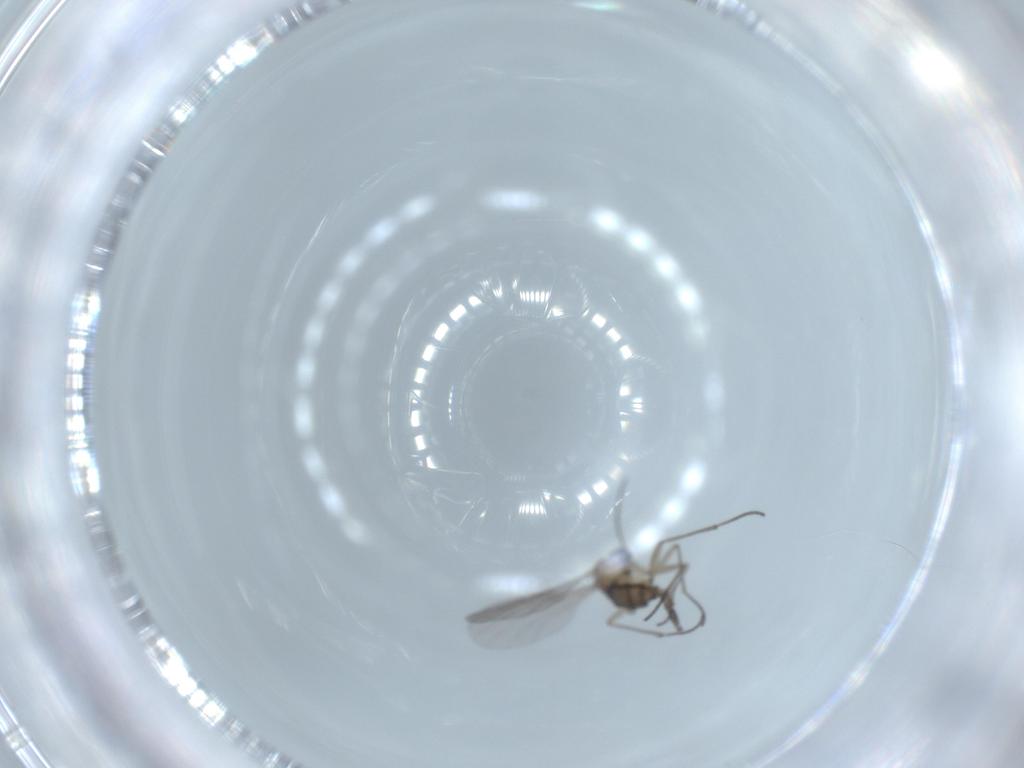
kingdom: Animalia
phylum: Arthropoda
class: Insecta
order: Diptera
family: Sciaridae
